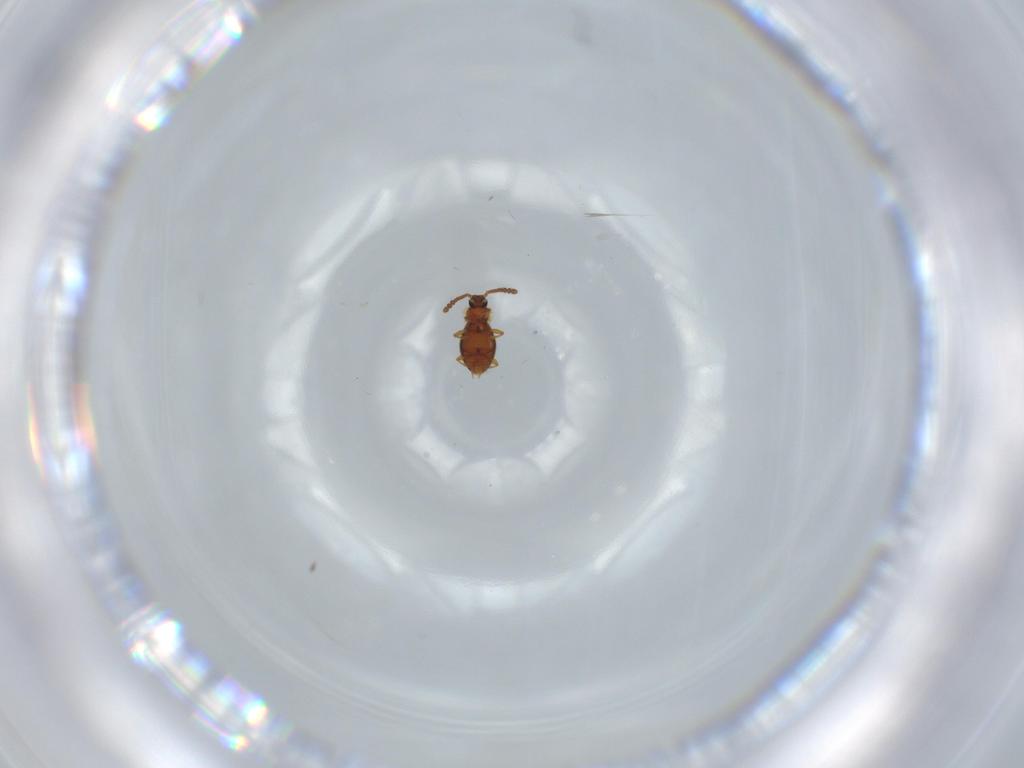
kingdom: Animalia
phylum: Arthropoda
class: Insecta
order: Coleoptera
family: Staphylinidae
